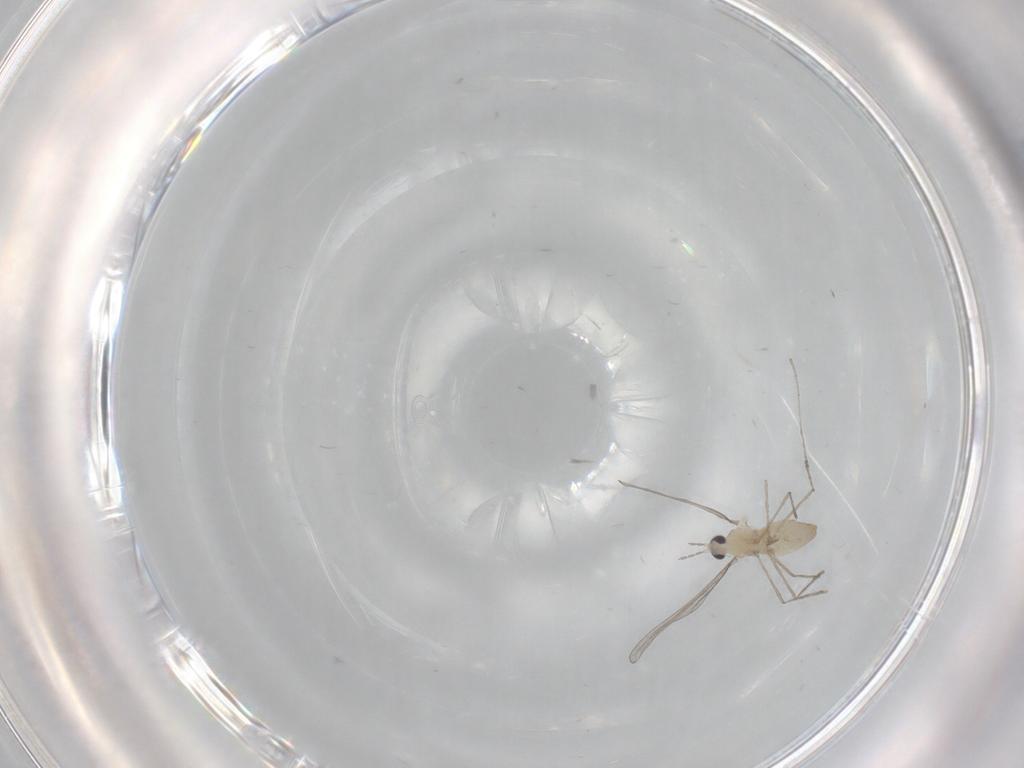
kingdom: Animalia
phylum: Arthropoda
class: Insecta
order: Diptera
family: Cecidomyiidae
